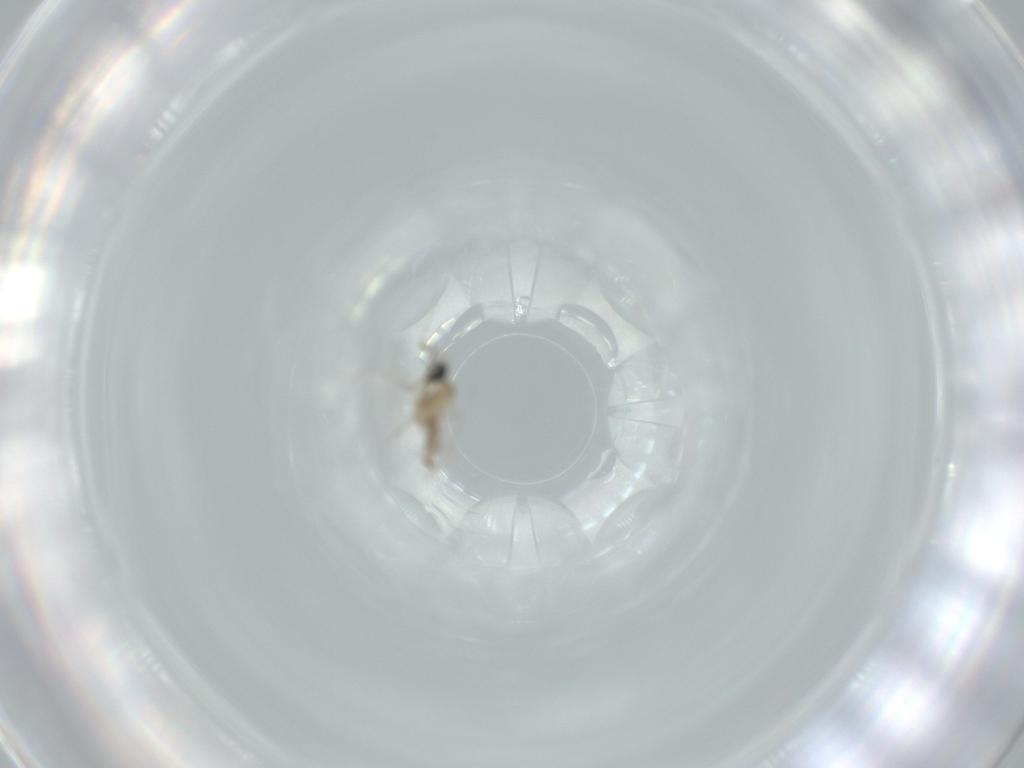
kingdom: Animalia
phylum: Arthropoda
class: Insecta
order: Diptera
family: Cecidomyiidae
